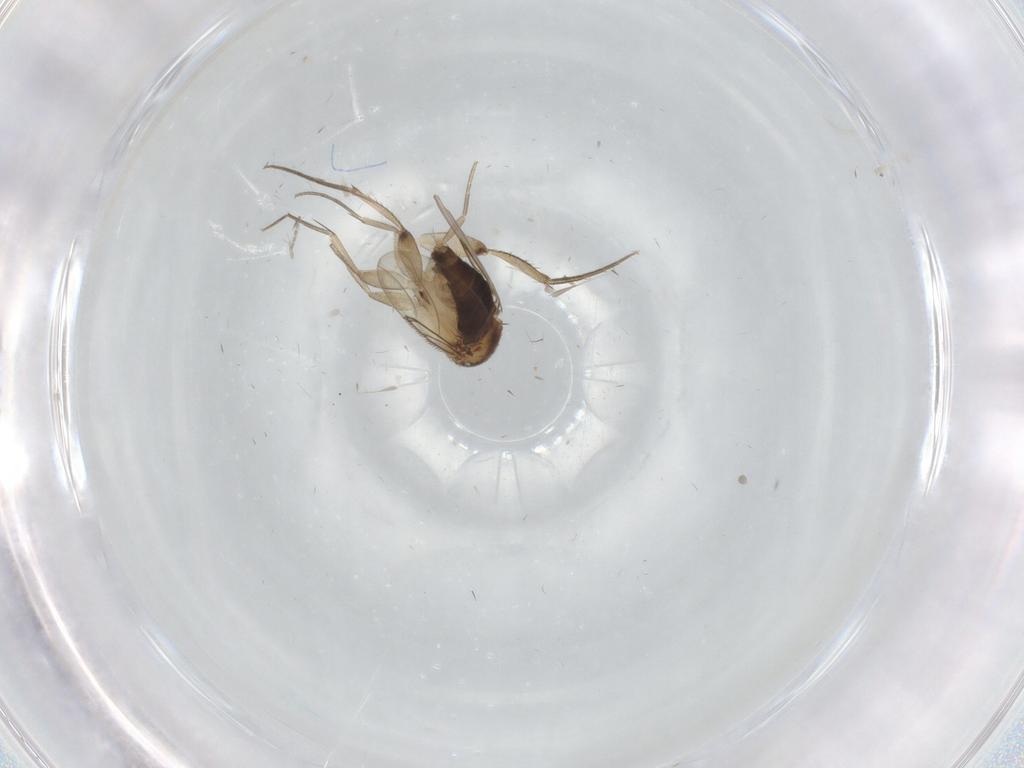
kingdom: Animalia
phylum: Arthropoda
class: Insecta
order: Diptera
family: Phoridae
